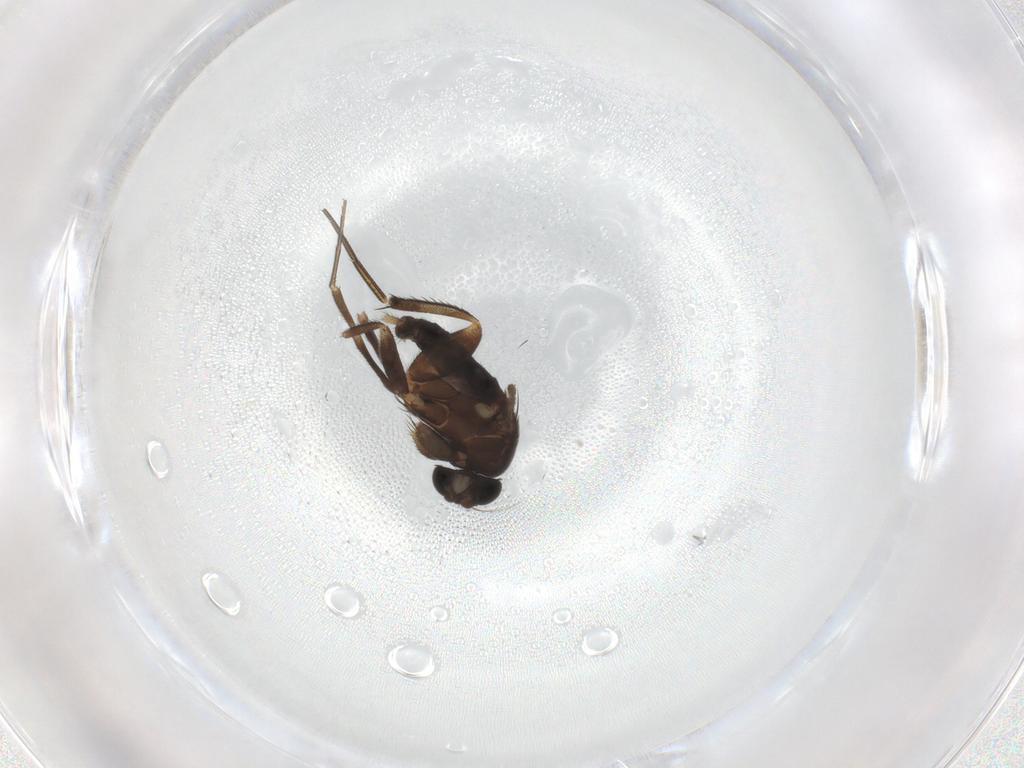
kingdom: Animalia
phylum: Arthropoda
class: Insecta
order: Diptera
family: Phoridae
